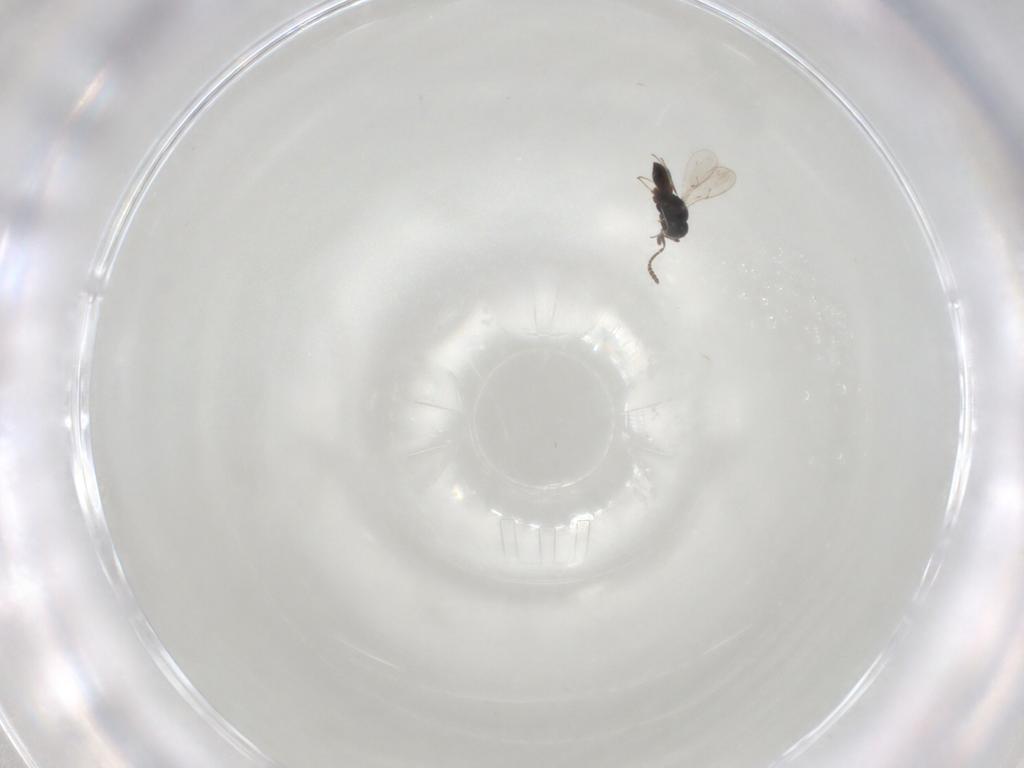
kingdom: Animalia
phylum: Arthropoda
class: Insecta
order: Hymenoptera
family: Scelionidae
